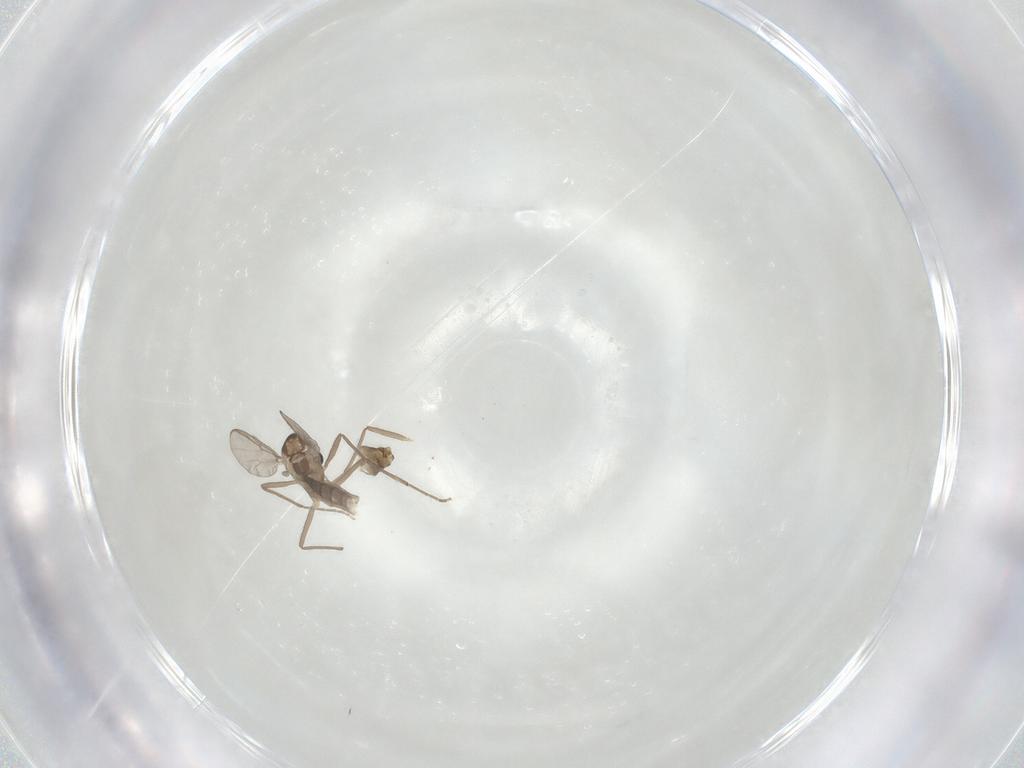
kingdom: Animalia
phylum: Arthropoda
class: Insecta
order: Diptera
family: Chironomidae
